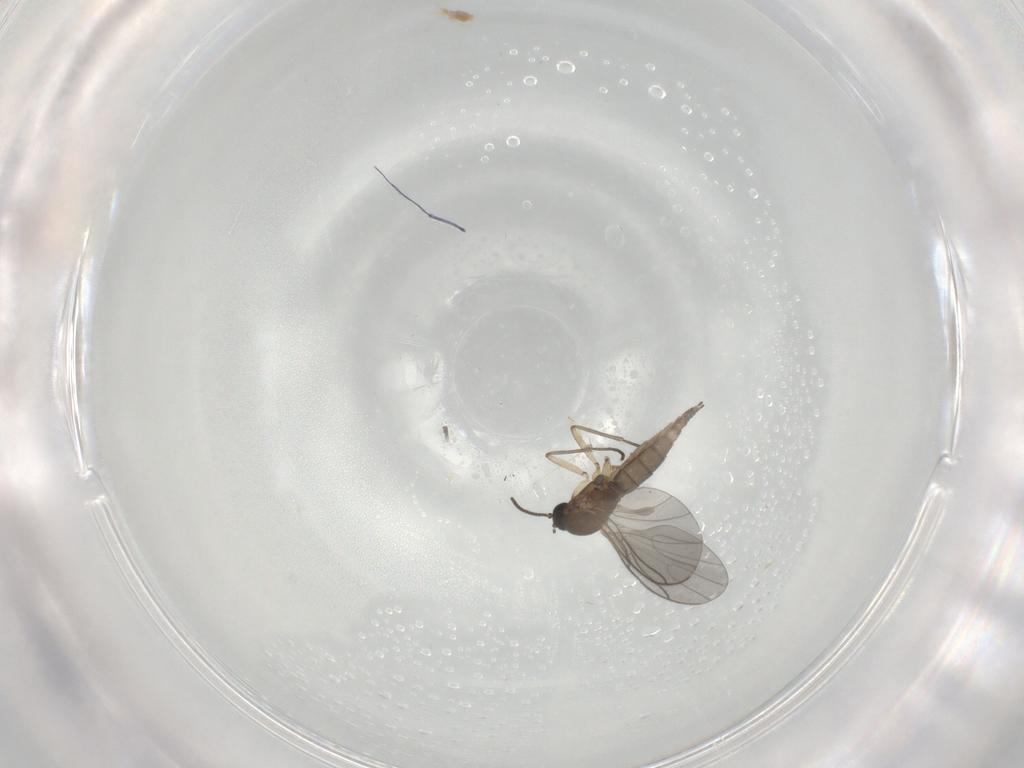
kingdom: Animalia
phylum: Arthropoda
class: Insecta
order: Diptera
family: Sciaridae
